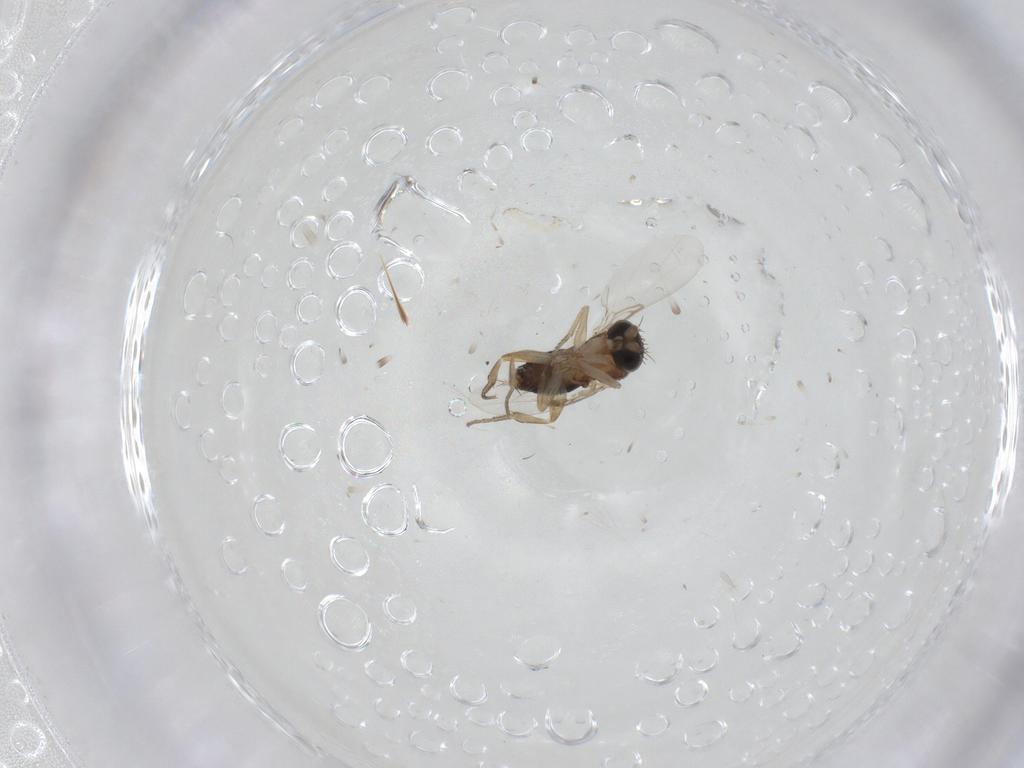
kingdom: Animalia
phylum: Arthropoda
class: Insecta
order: Diptera
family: Phoridae
